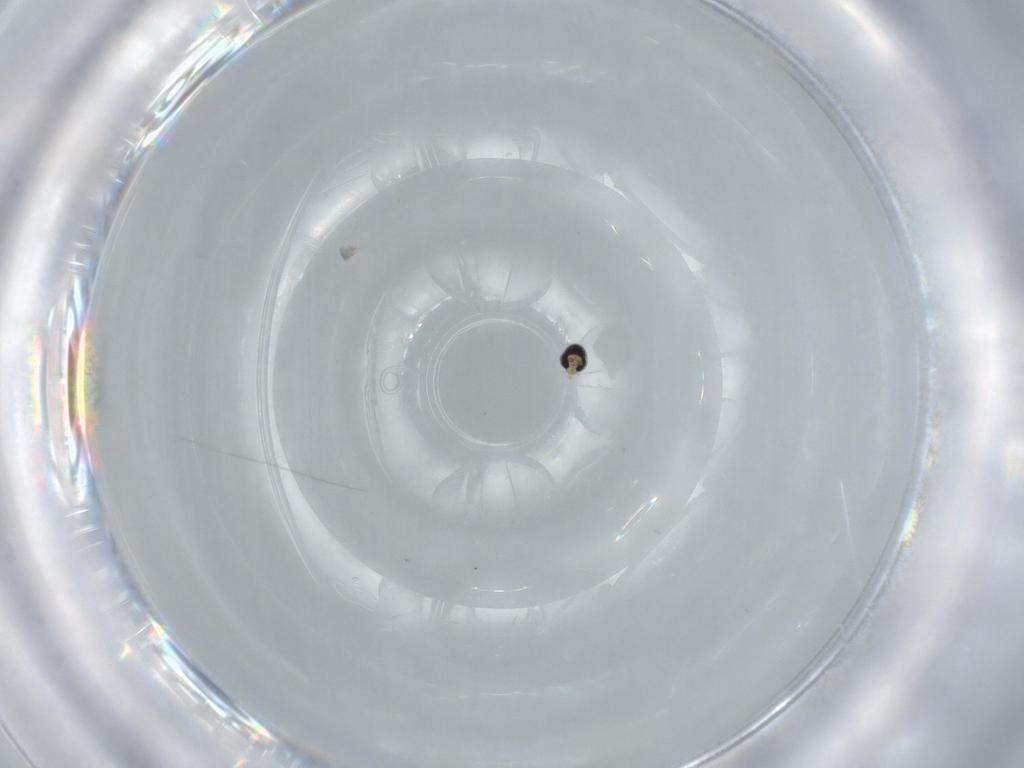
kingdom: Animalia
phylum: Arthropoda
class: Insecta
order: Diptera
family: Cecidomyiidae
